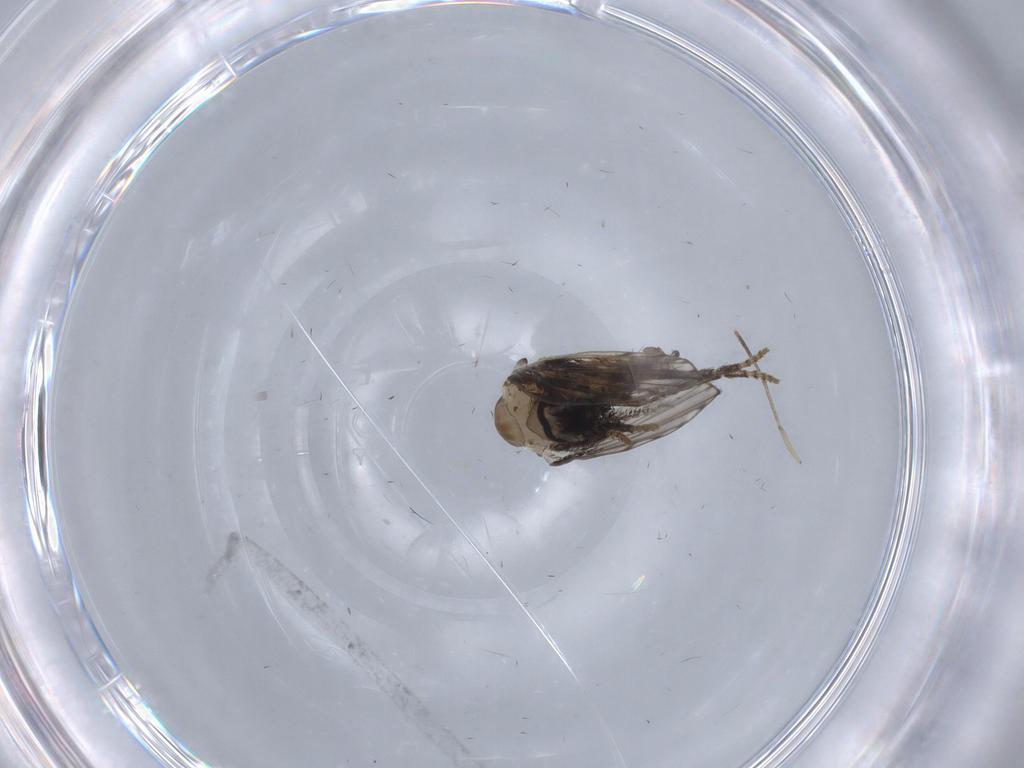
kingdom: Animalia
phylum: Arthropoda
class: Insecta
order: Diptera
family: Psychodidae
